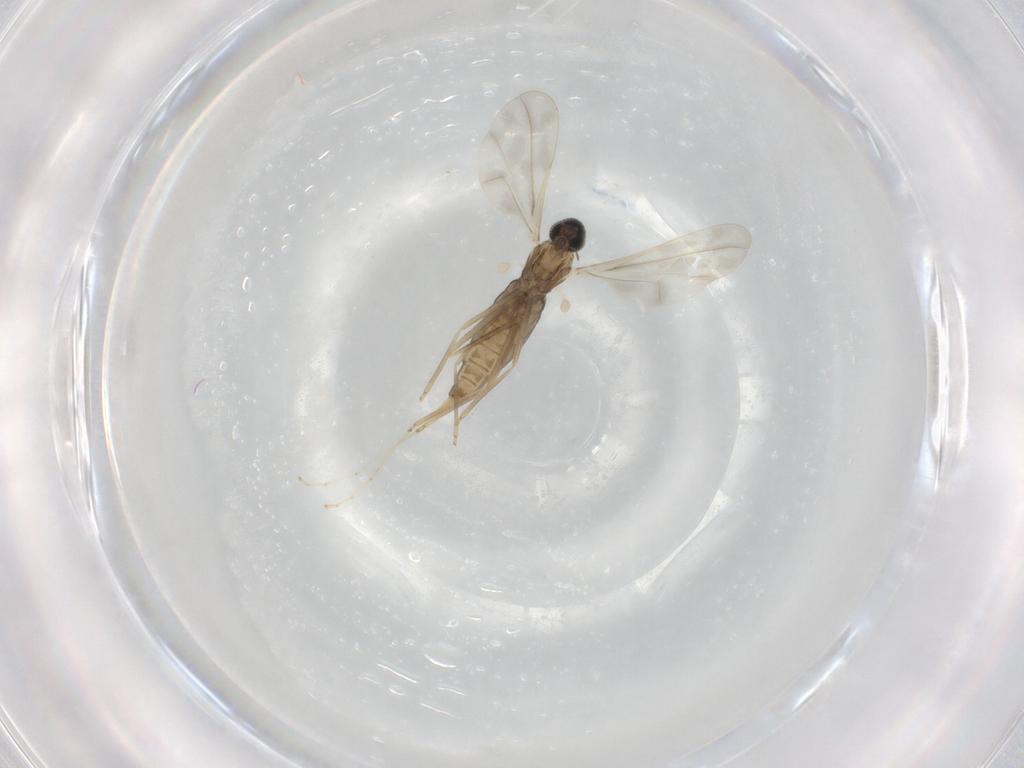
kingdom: Animalia
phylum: Arthropoda
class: Insecta
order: Diptera
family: Cecidomyiidae
